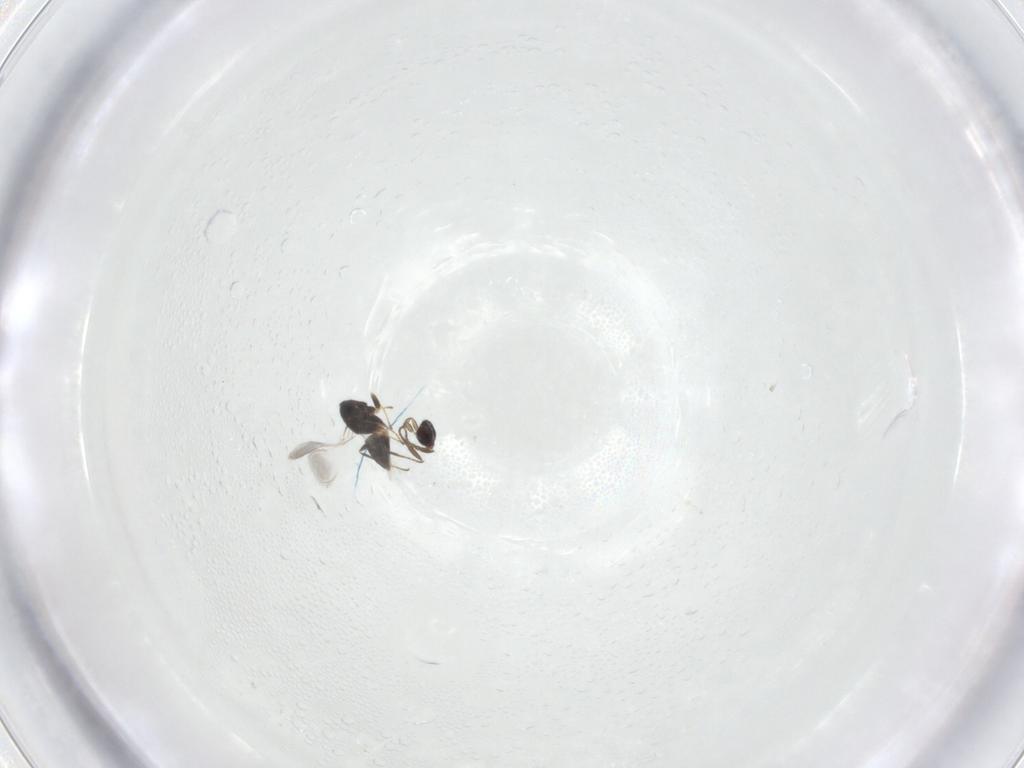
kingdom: Animalia
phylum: Arthropoda
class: Insecta
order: Hymenoptera
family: Mymaridae
